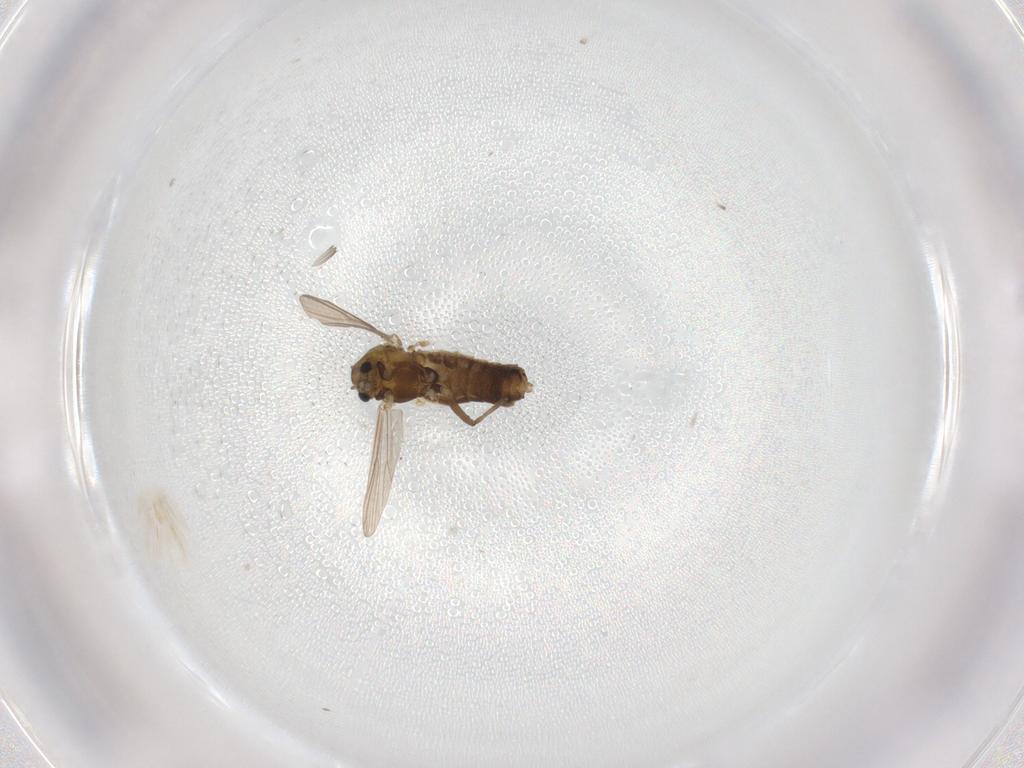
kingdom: Animalia
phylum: Arthropoda
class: Insecta
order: Diptera
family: Chironomidae
